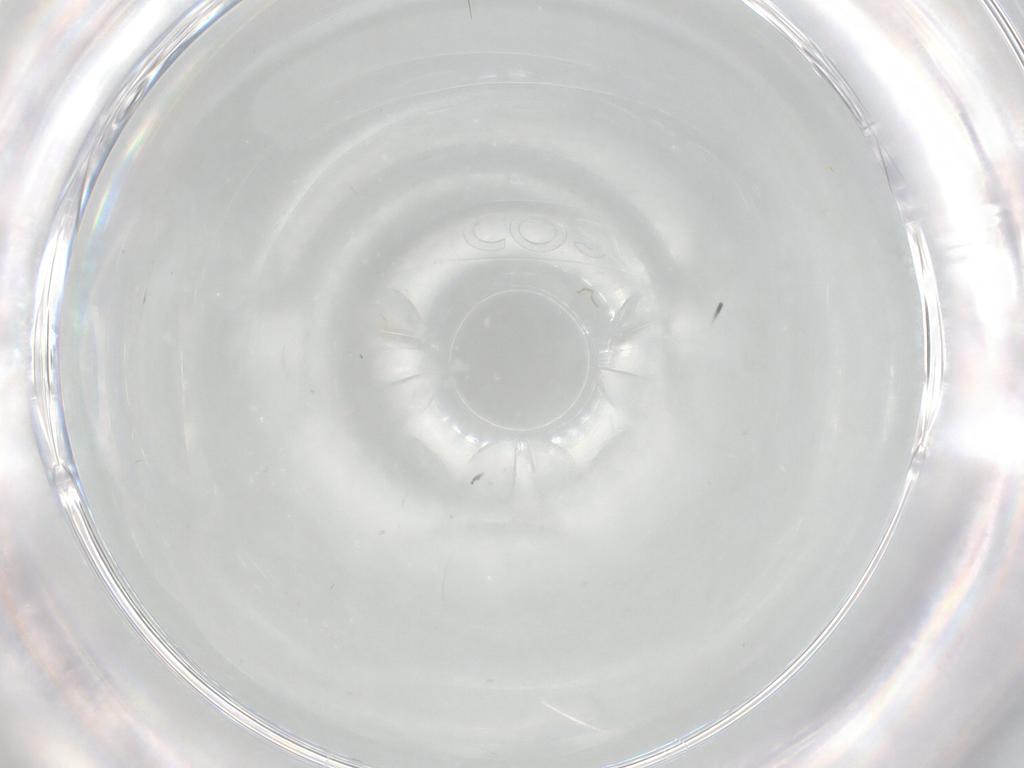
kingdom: Animalia
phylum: Arthropoda
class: Insecta
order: Diptera
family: Chironomidae
